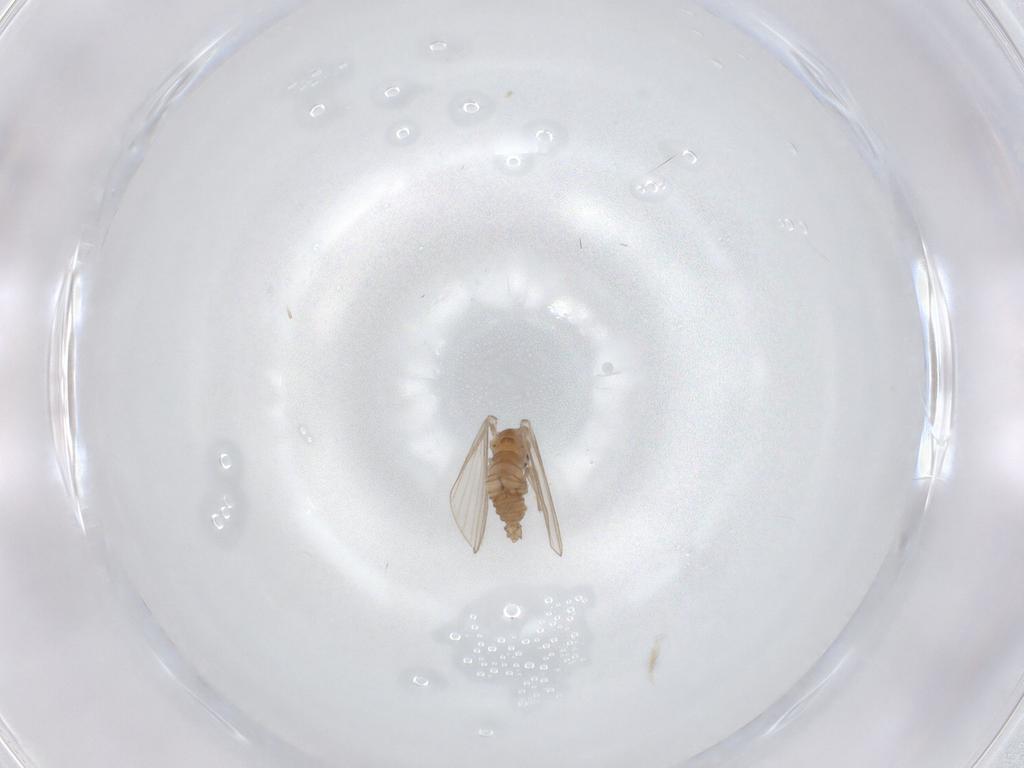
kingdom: Animalia
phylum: Arthropoda
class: Insecta
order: Diptera
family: Psychodidae
